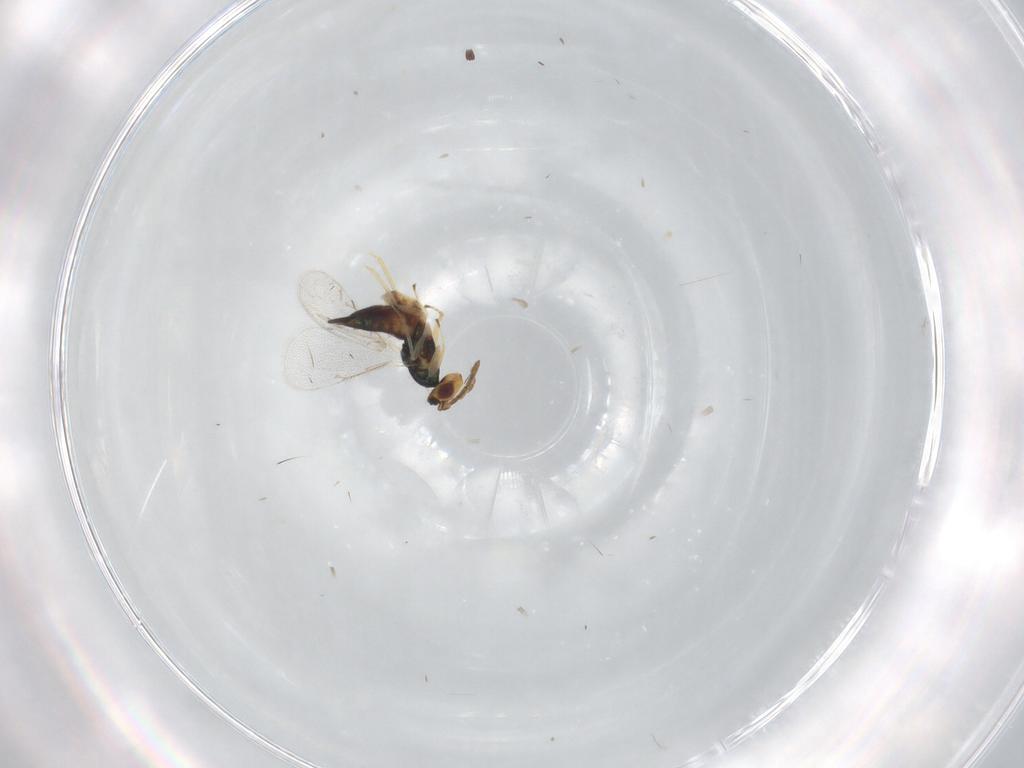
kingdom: Animalia
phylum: Arthropoda
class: Insecta
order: Hymenoptera
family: Eulophidae
